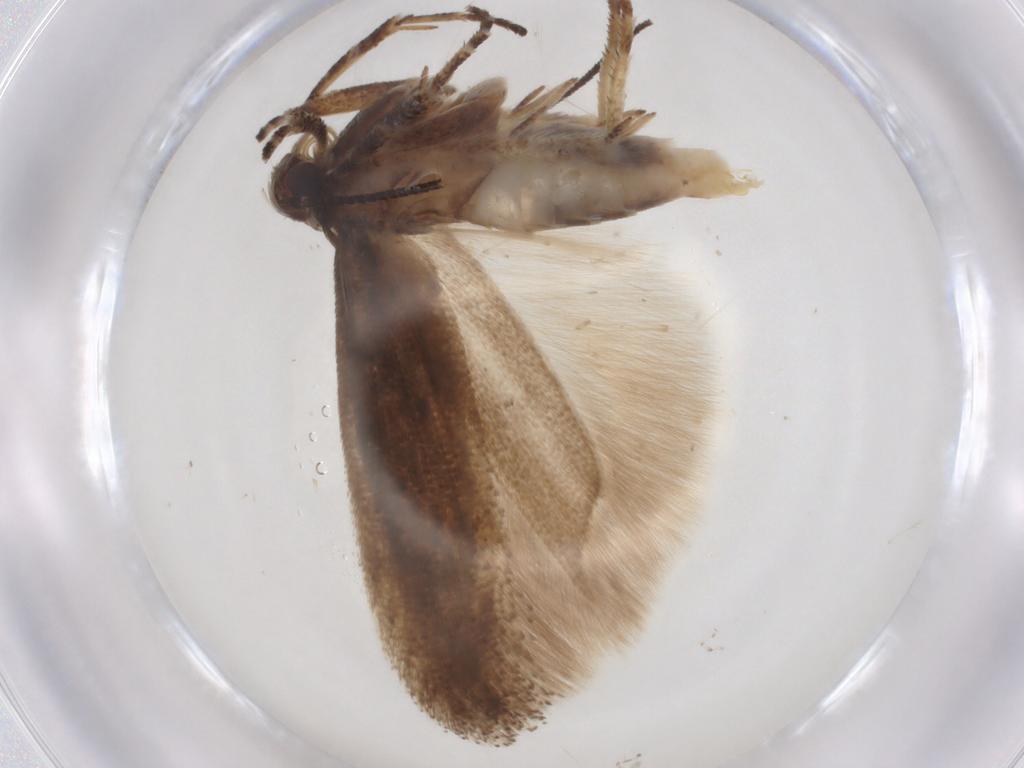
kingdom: Animalia
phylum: Arthropoda
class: Insecta
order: Lepidoptera
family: Gelechiidae
